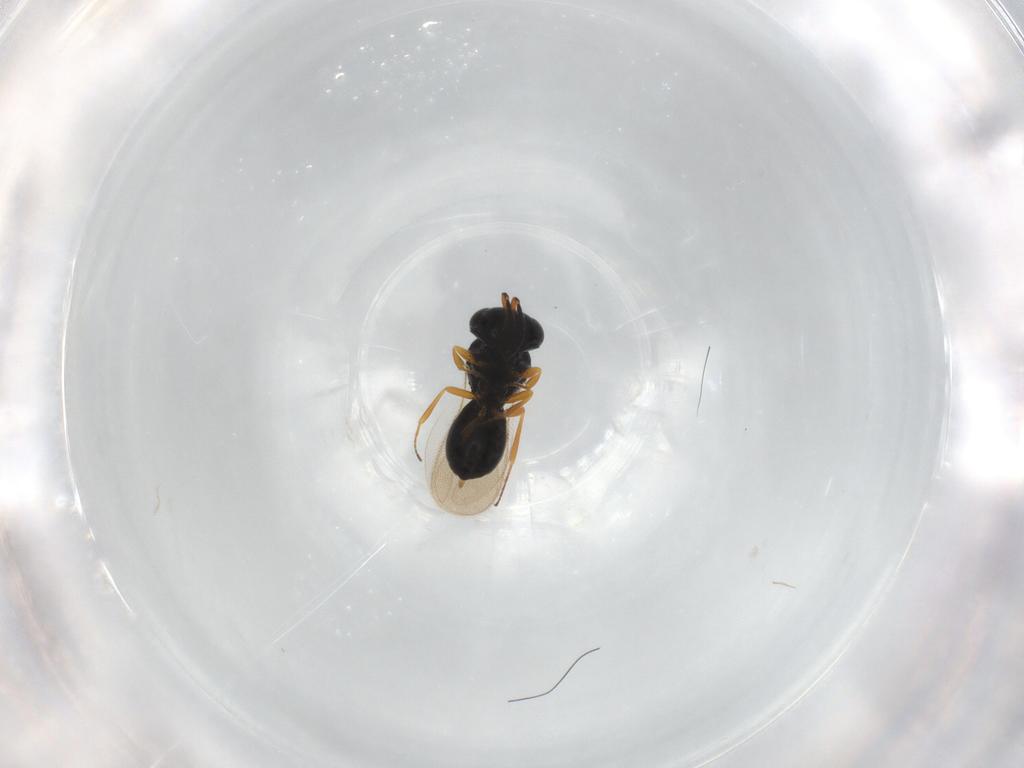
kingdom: Animalia
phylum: Arthropoda
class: Insecta
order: Hymenoptera
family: Scelionidae
